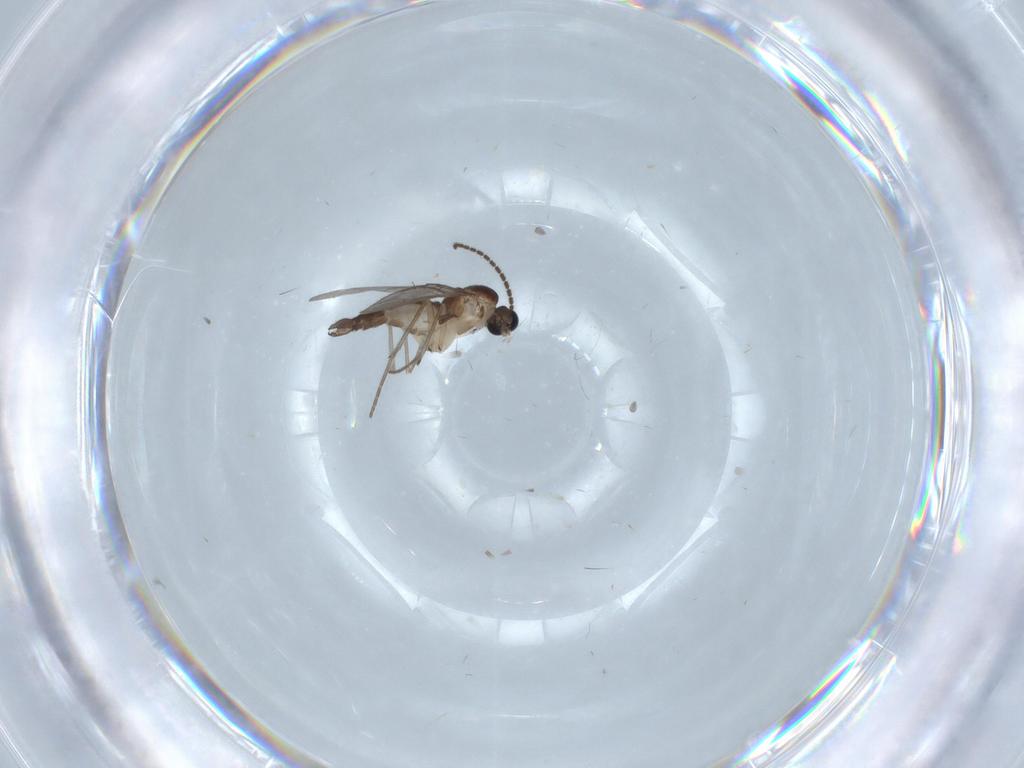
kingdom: Animalia
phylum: Arthropoda
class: Insecta
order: Diptera
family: Sciaridae
